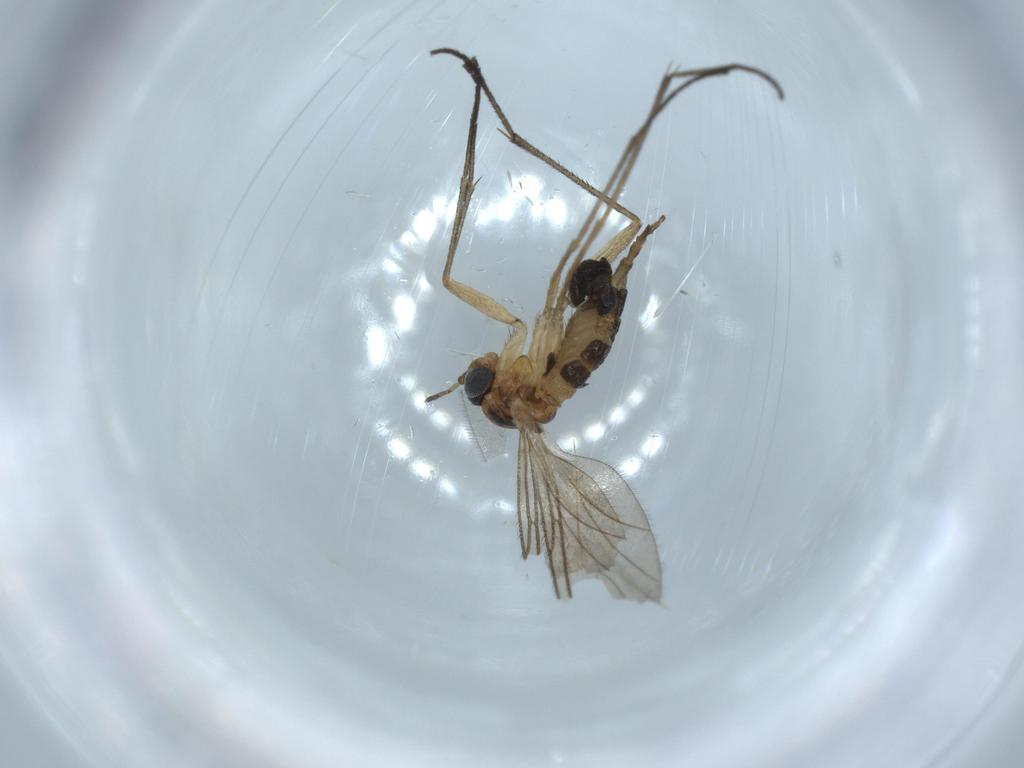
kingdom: Animalia
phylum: Arthropoda
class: Insecta
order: Diptera
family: Sciaridae
